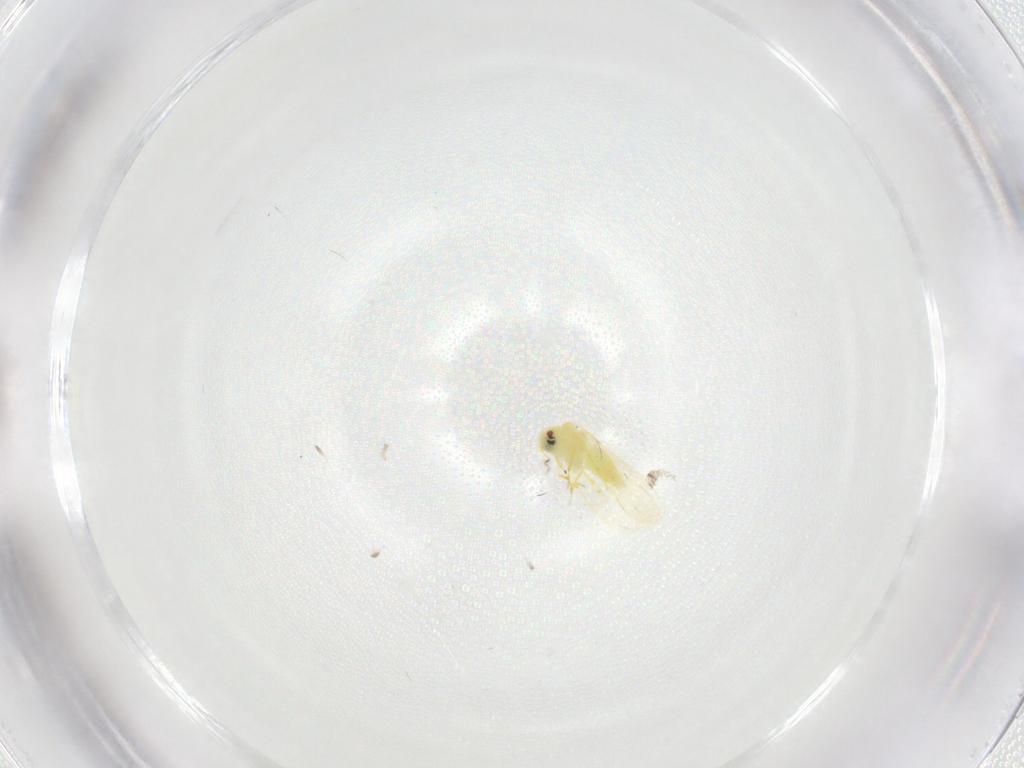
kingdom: Animalia
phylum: Arthropoda
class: Insecta
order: Hemiptera
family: Aleyrodidae
